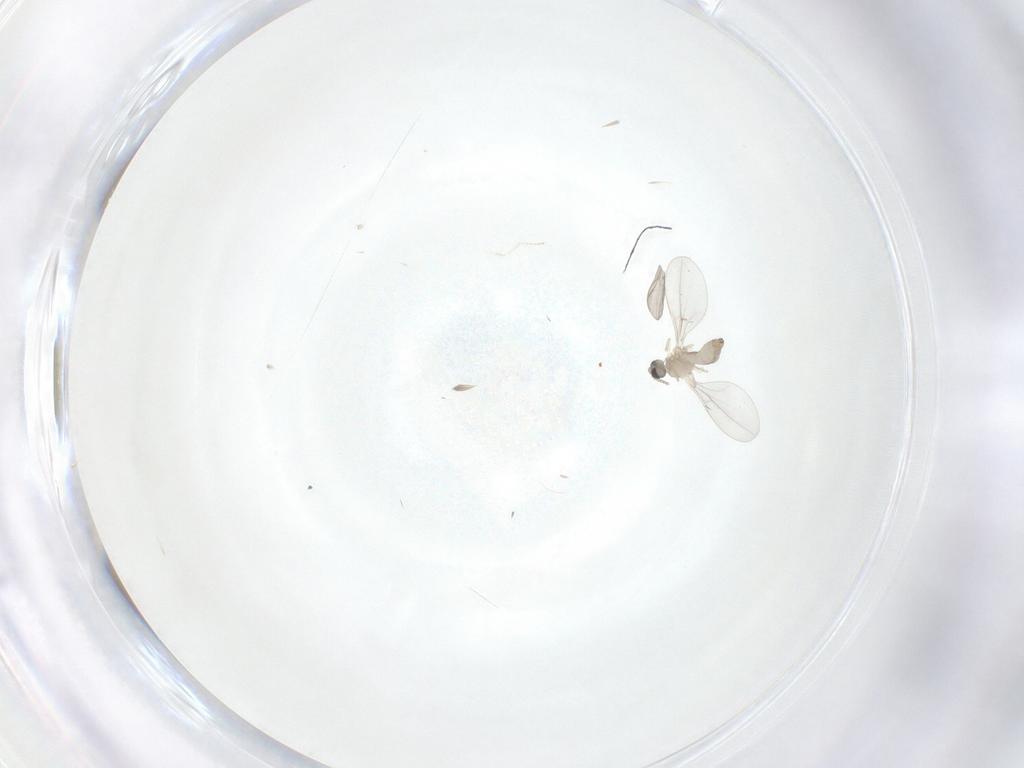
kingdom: Animalia
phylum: Arthropoda
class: Insecta
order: Diptera
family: Cecidomyiidae
